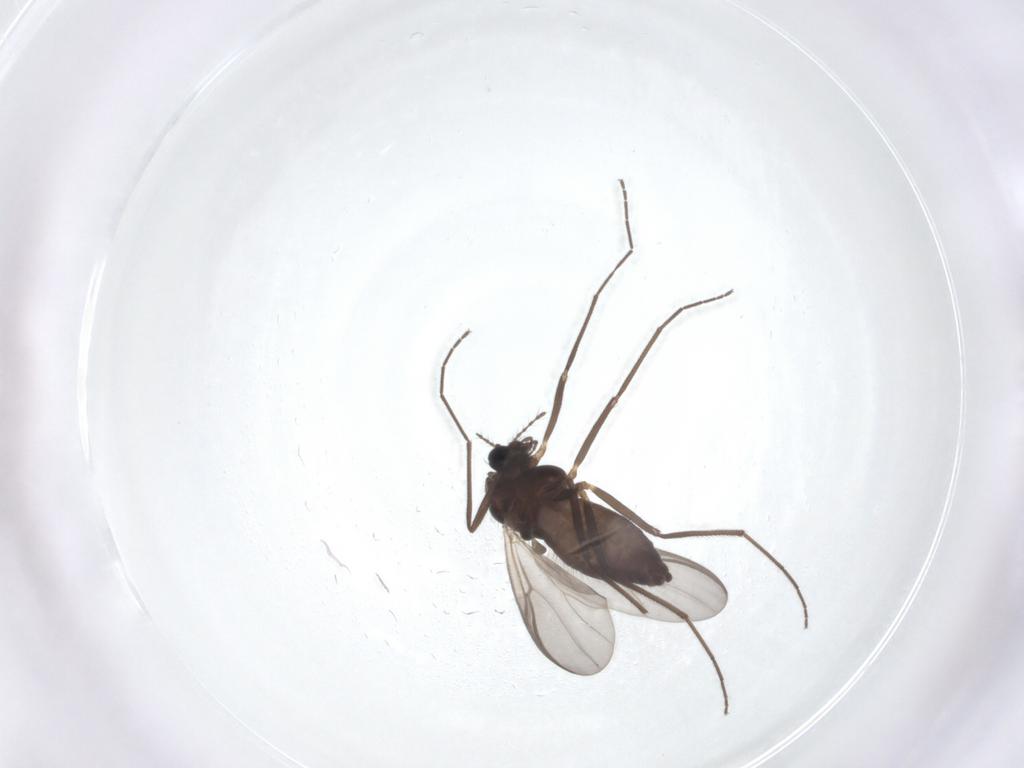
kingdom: Animalia
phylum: Arthropoda
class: Insecta
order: Diptera
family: Chironomidae
